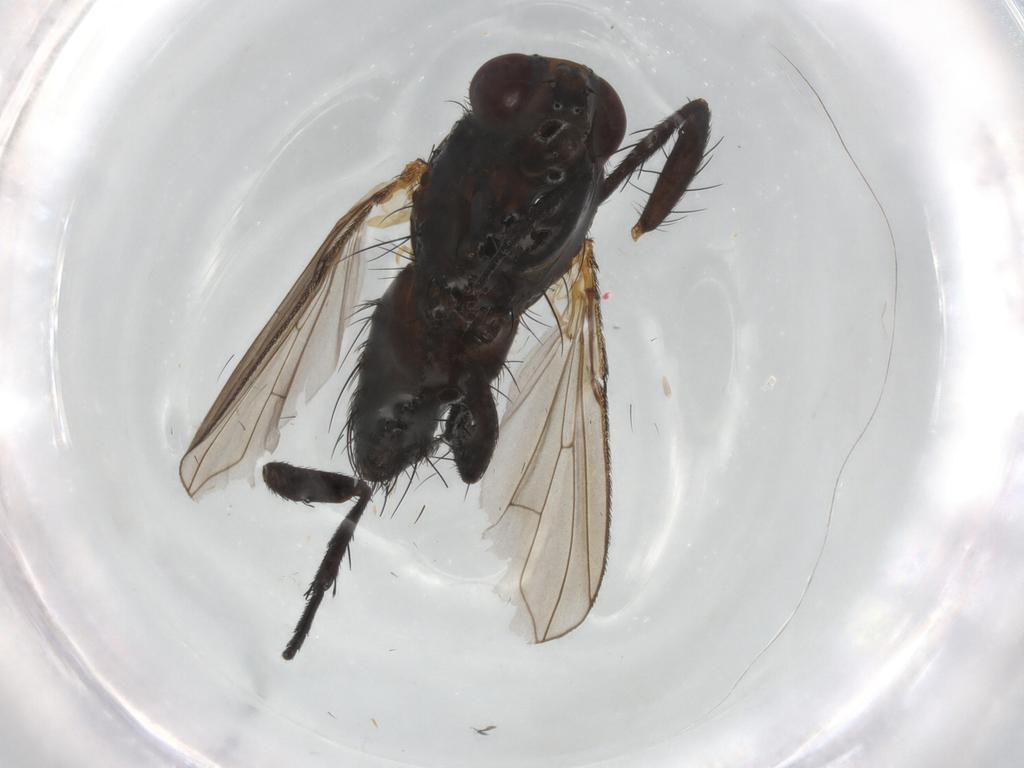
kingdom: Animalia
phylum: Arthropoda
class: Insecta
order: Diptera
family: Calliphoridae
